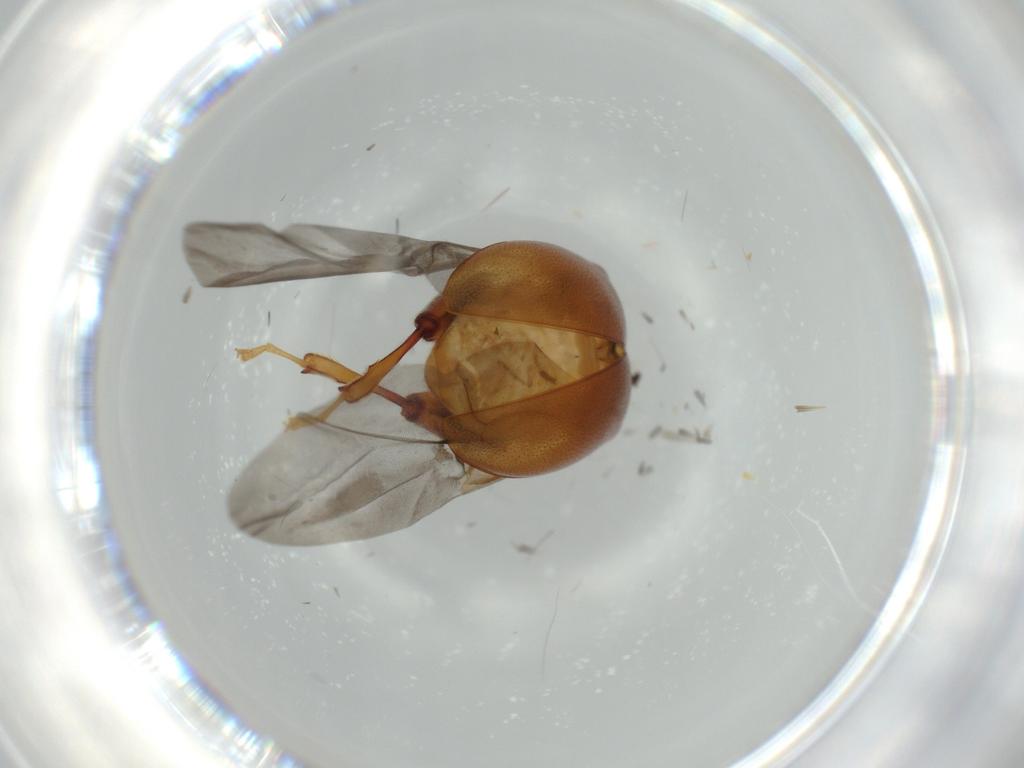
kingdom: Animalia
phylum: Arthropoda
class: Insecta
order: Coleoptera
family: Chrysomelidae
